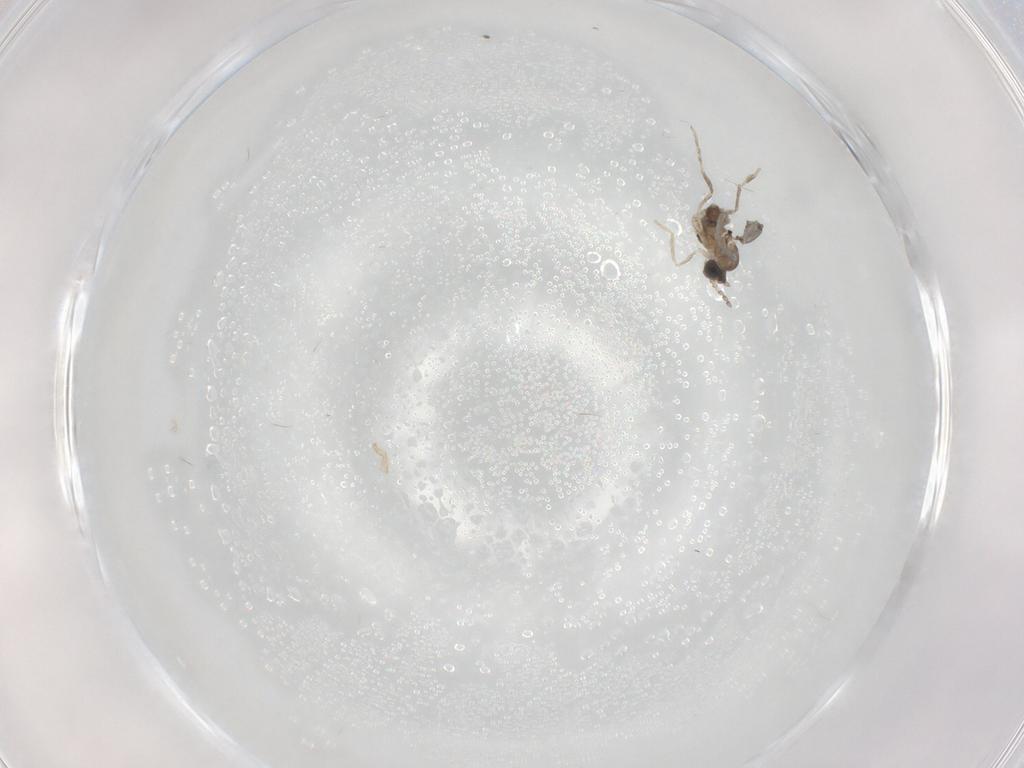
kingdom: Animalia
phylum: Arthropoda
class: Insecta
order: Diptera
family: Cecidomyiidae
